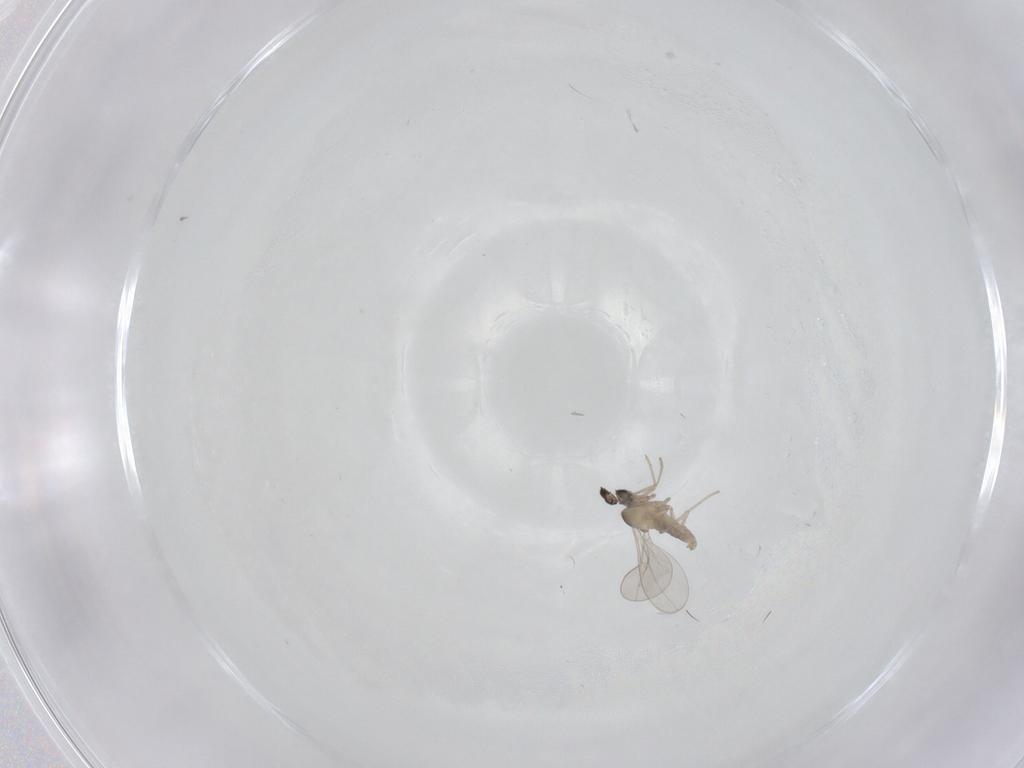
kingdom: Animalia
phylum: Arthropoda
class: Insecta
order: Diptera
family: Cecidomyiidae
